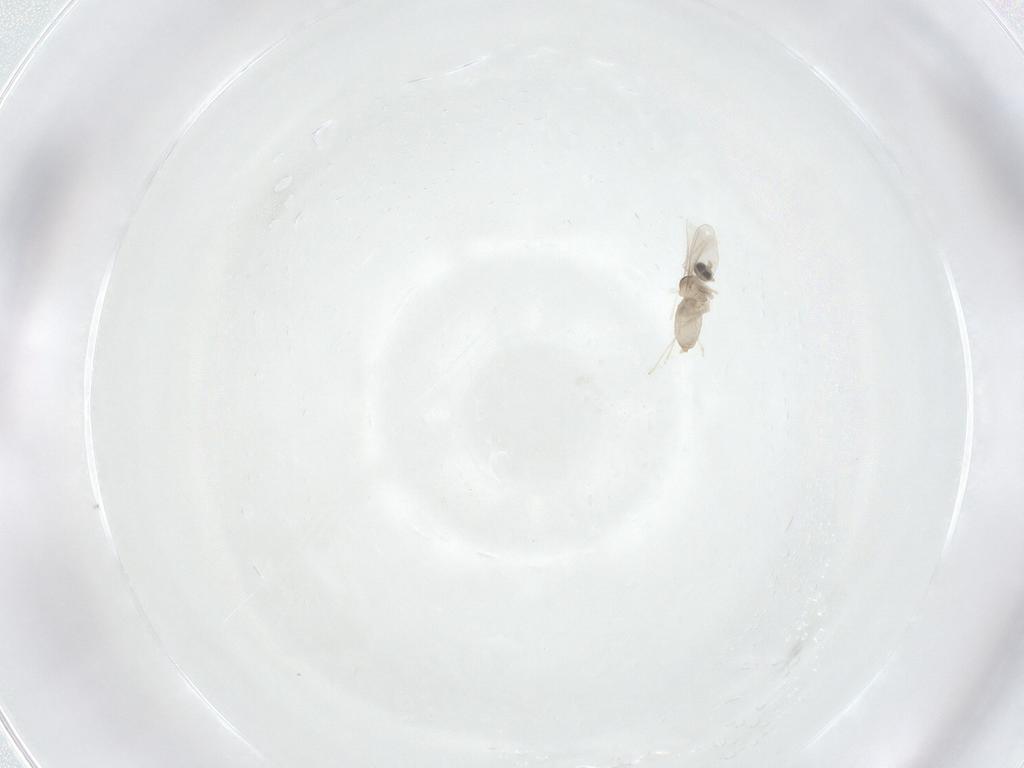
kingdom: Animalia
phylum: Arthropoda
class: Insecta
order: Diptera
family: Cecidomyiidae
